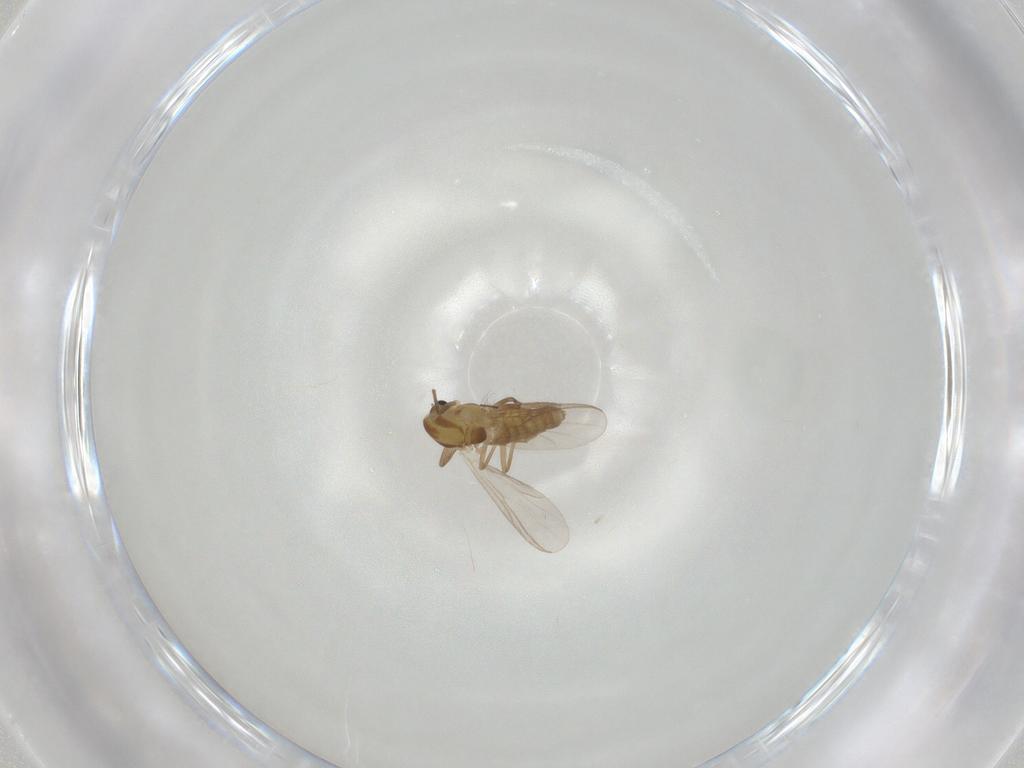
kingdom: Animalia
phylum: Arthropoda
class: Insecta
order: Diptera
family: Chironomidae
